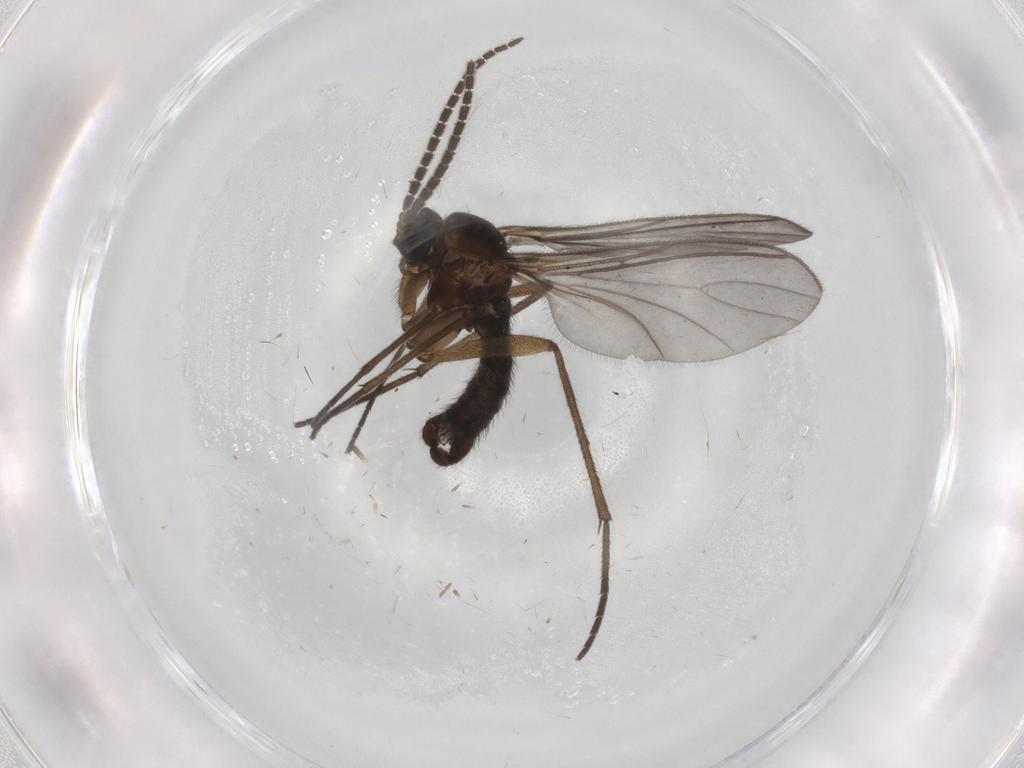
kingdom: Animalia
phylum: Arthropoda
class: Insecta
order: Diptera
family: Sciaridae
